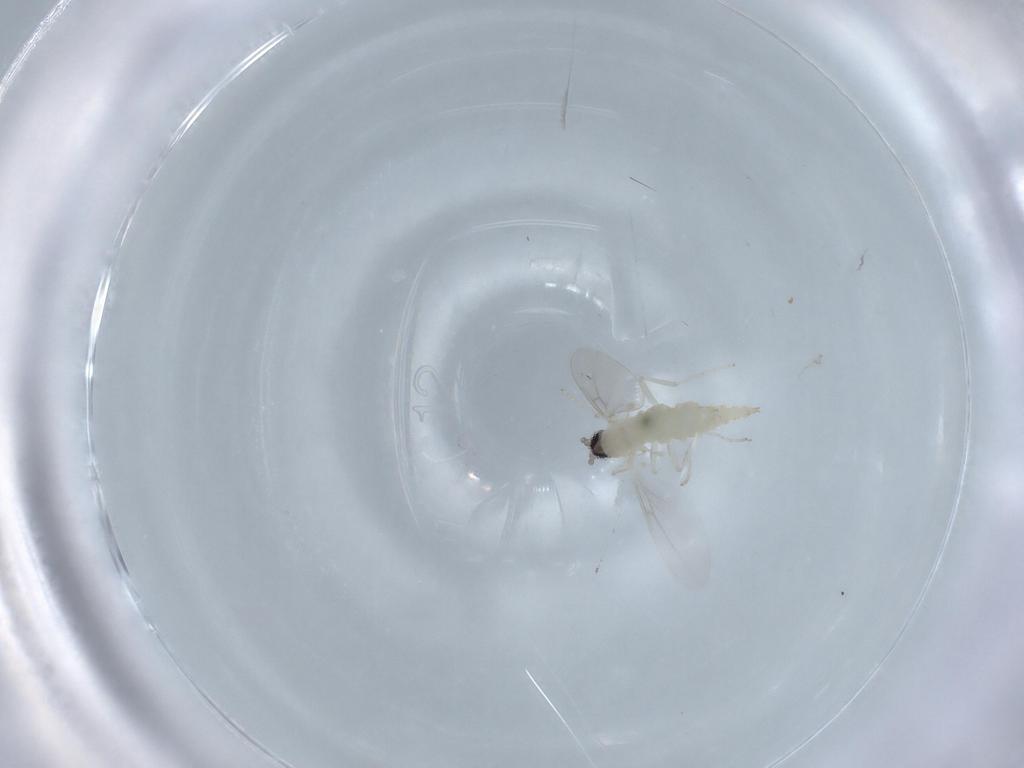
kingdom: Animalia
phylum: Arthropoda
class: Insecta
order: Diptera
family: Cecidomyiidae
